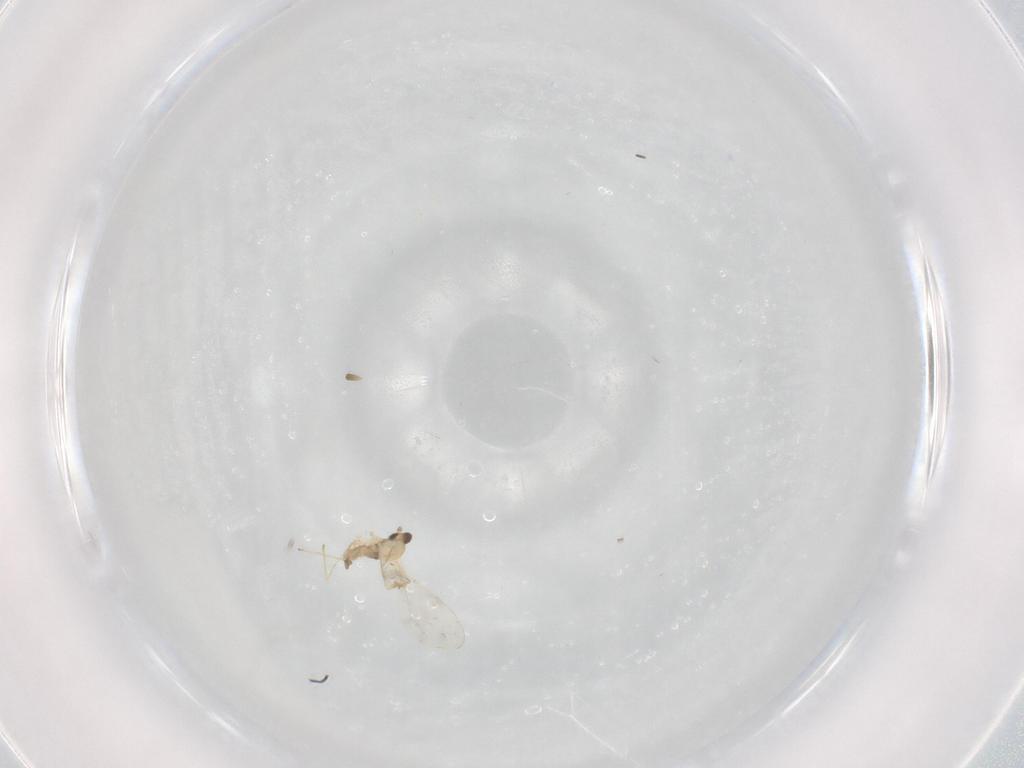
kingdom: Animalia
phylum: Arthropoda
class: Insecta
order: Diptera
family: Cecidomyiidae
